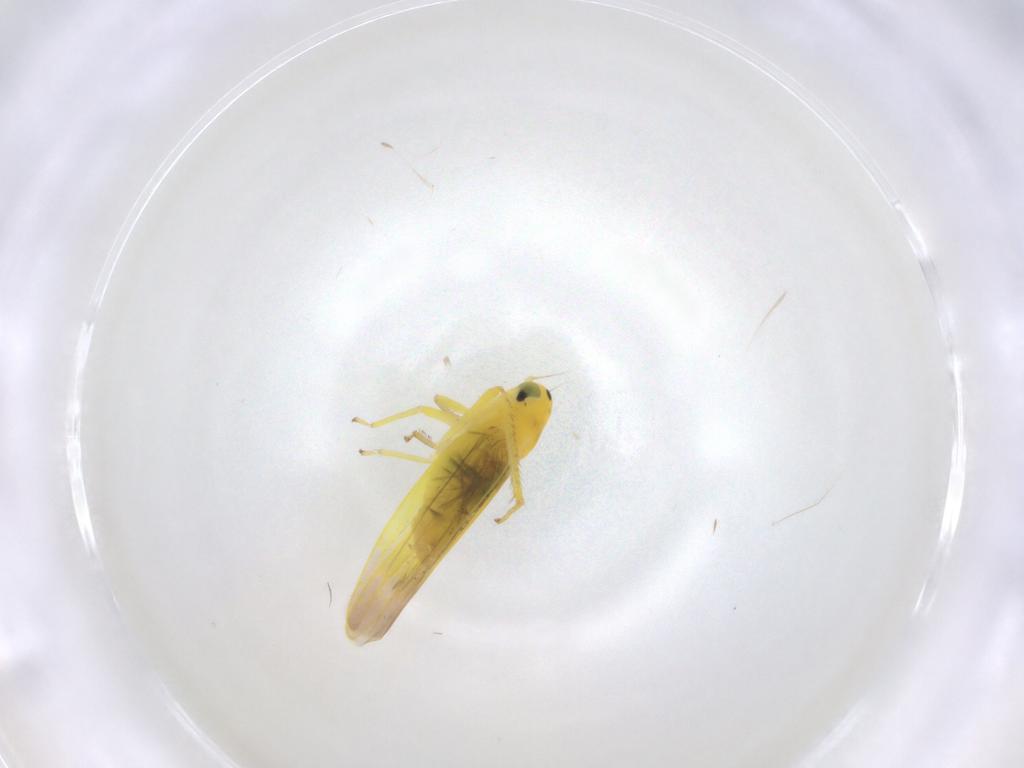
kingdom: Animalia
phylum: Arthropoda
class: Insecta
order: Hemiptera
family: Cicadellidae
